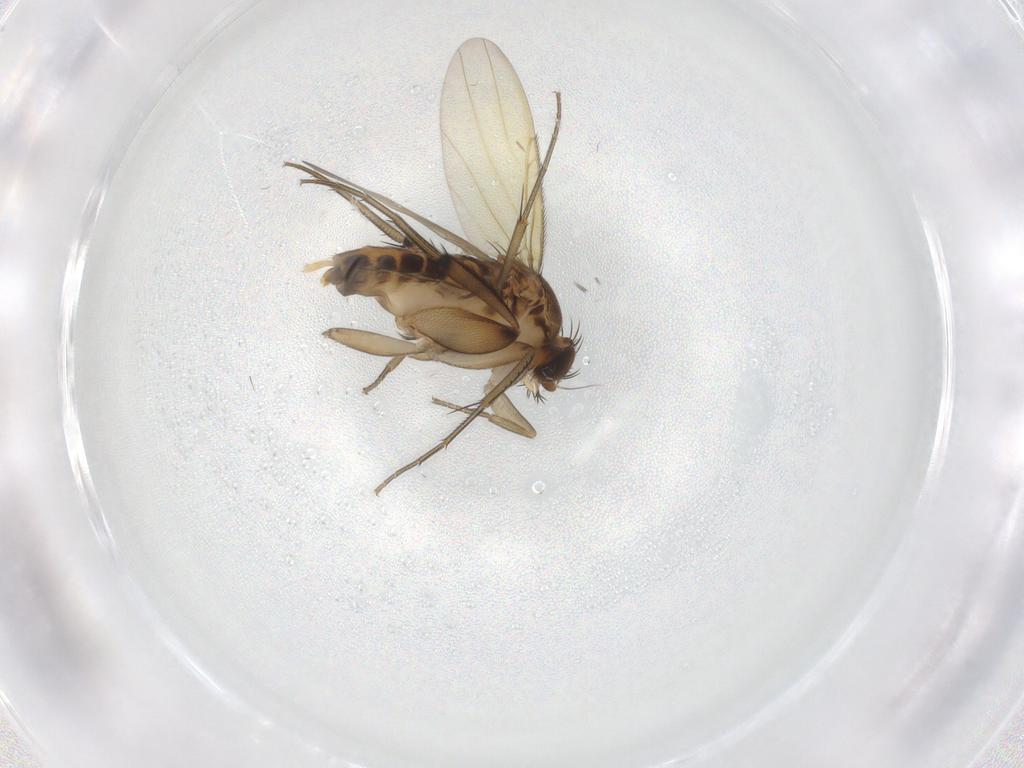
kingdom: Animalia
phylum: Arthropoda
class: Insecta
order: Diptera
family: Phoridae
